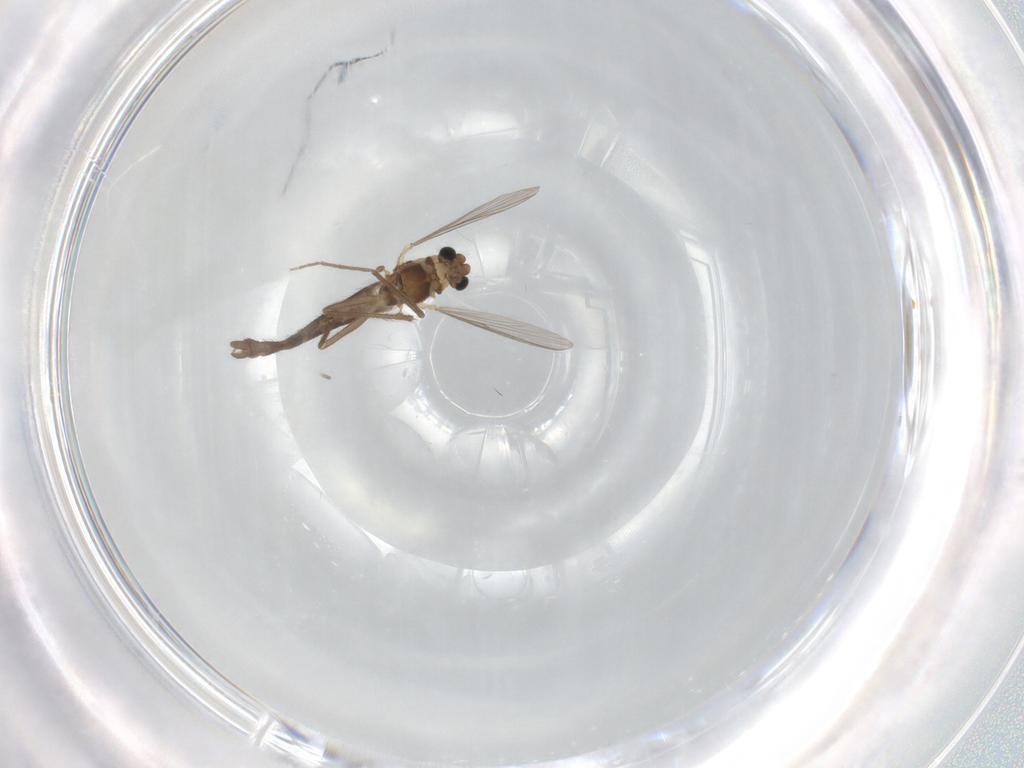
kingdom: Animalia
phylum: Arthropoda
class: Insecta
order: Diptera
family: Chironomidae
